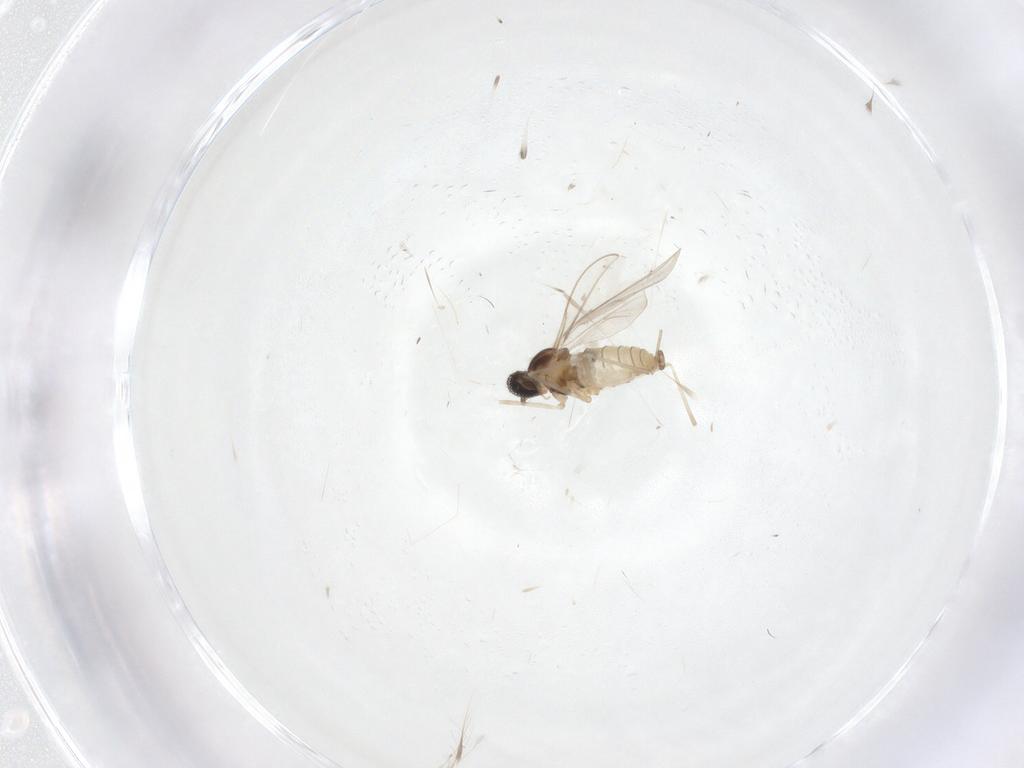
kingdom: Animalia
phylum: Arthropoda
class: Insecta
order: Diptera
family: Cecidomyiidae
